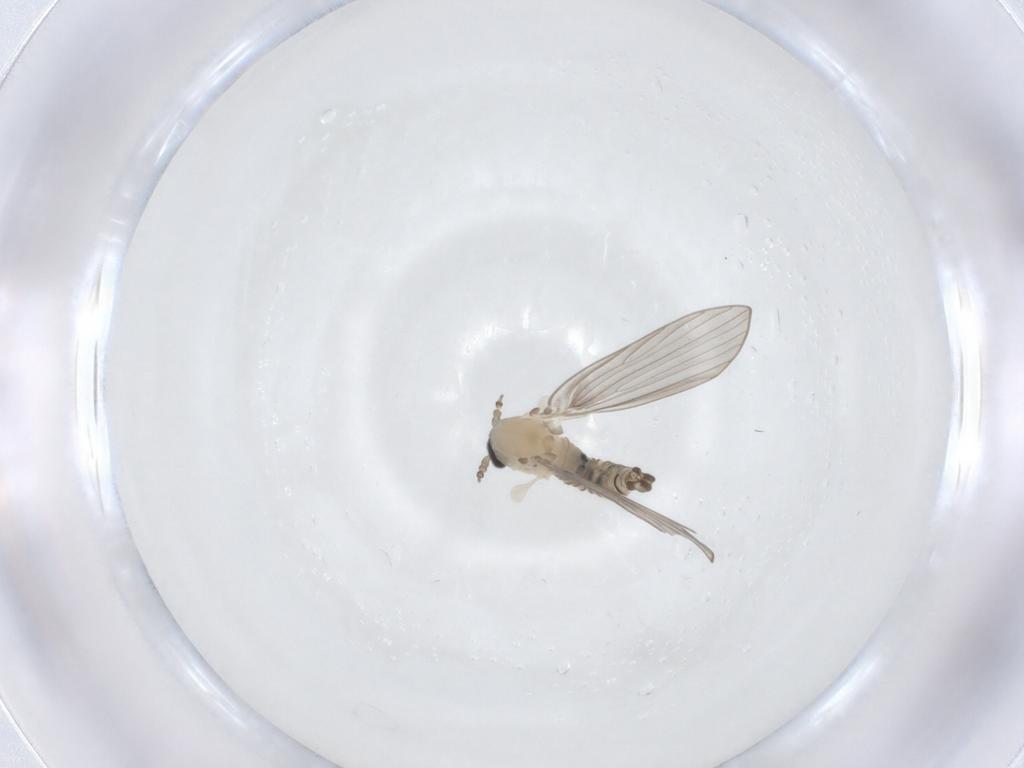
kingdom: Animalia
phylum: Arthropoda
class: Insecta
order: Diptera
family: Psychodidae
